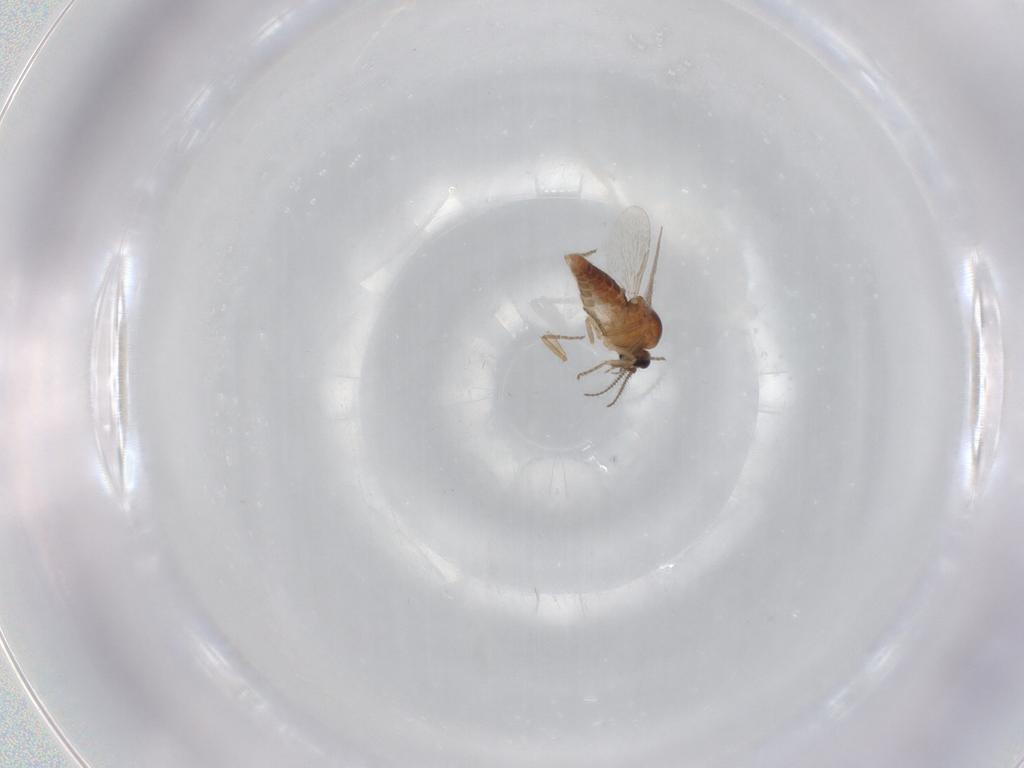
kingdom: Animalia
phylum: Arthropoda
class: Insecta
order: Diptera
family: Ceratopogonidae
